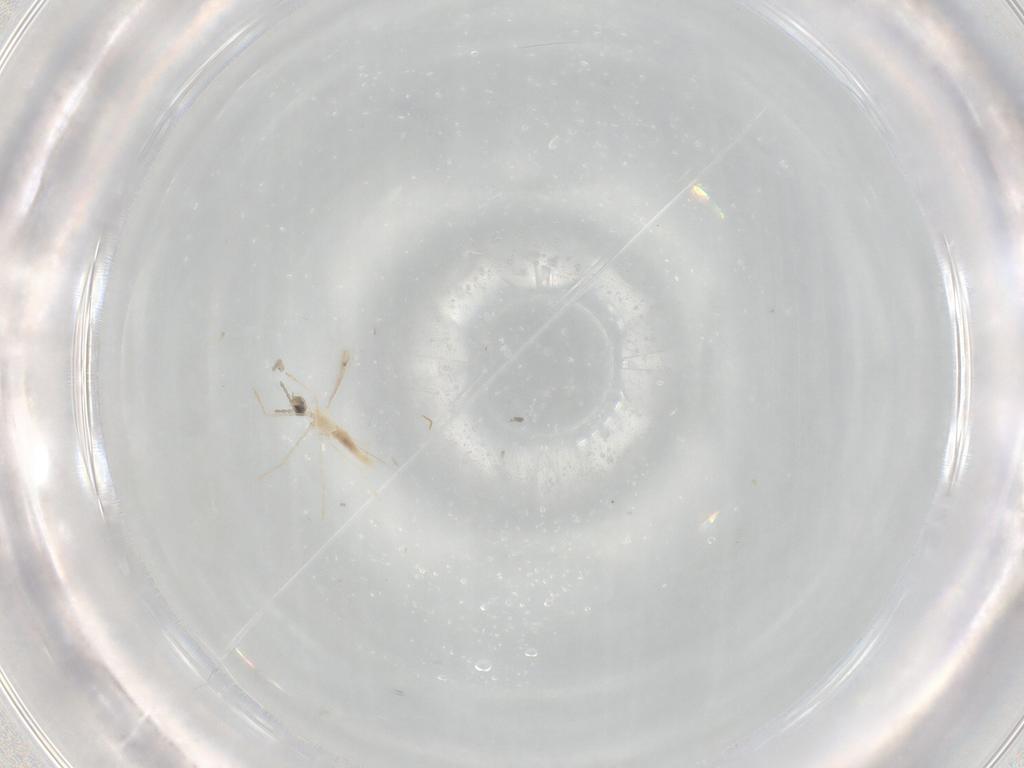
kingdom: Animalia
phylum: Arthropoda
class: Insecta
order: Diptera
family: Cecidomyiidae
